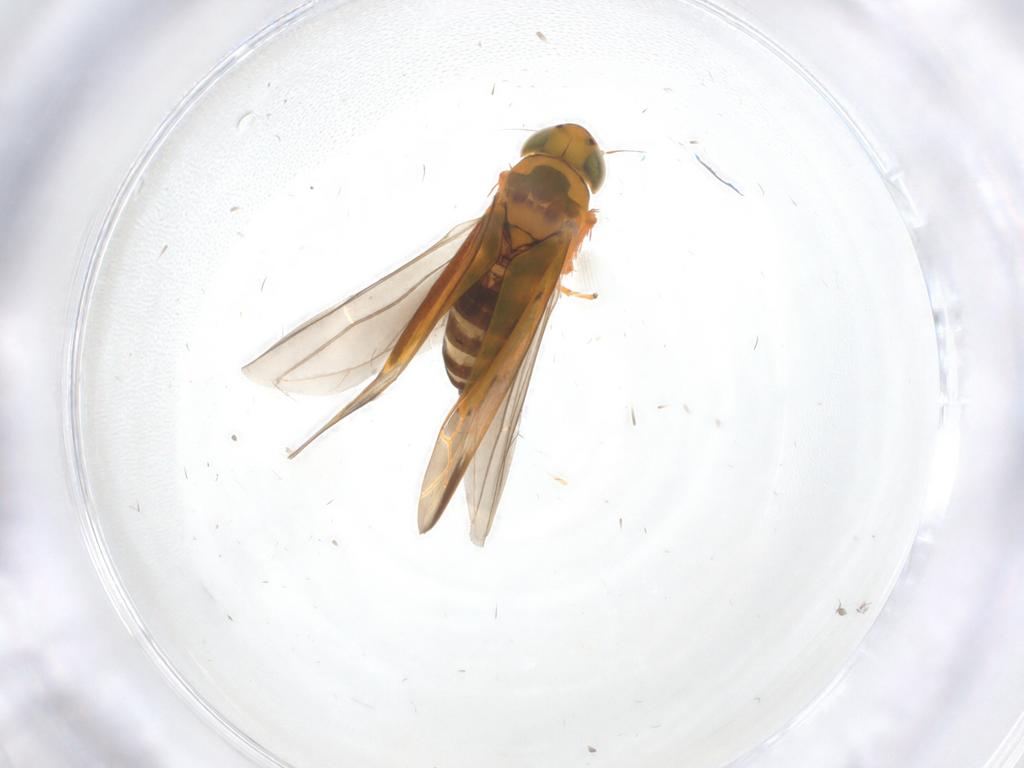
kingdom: Animalia
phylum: Arthropoda
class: Insecta
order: Hemiptera
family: Cicadellidae
